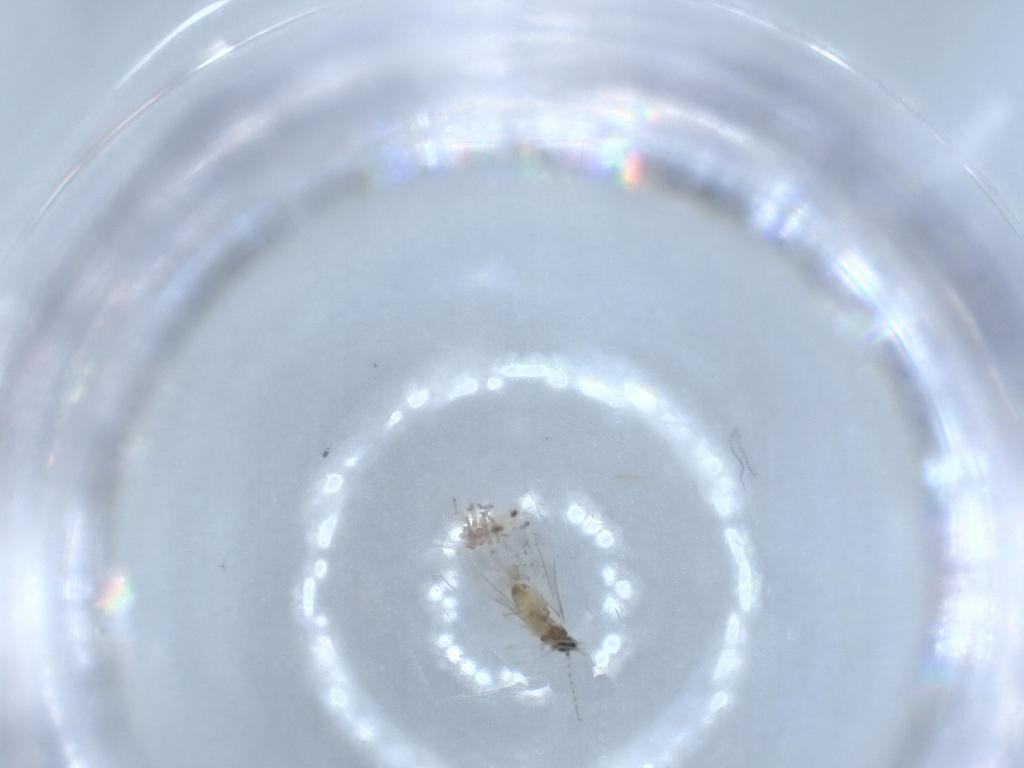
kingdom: Animalia
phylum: Arthropoda
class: Insecta
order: Diptera
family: Cecidomyiidae
